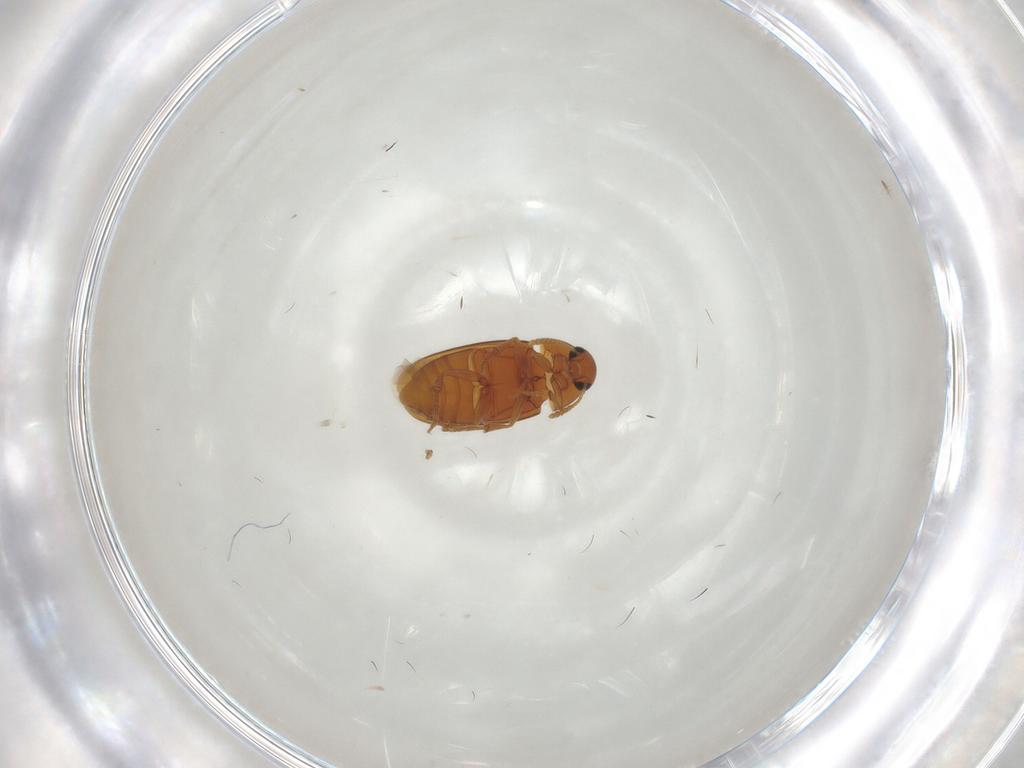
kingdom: Animalia
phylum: Arthropoda
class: Insecta
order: Coleoptera
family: Scraptiidae
